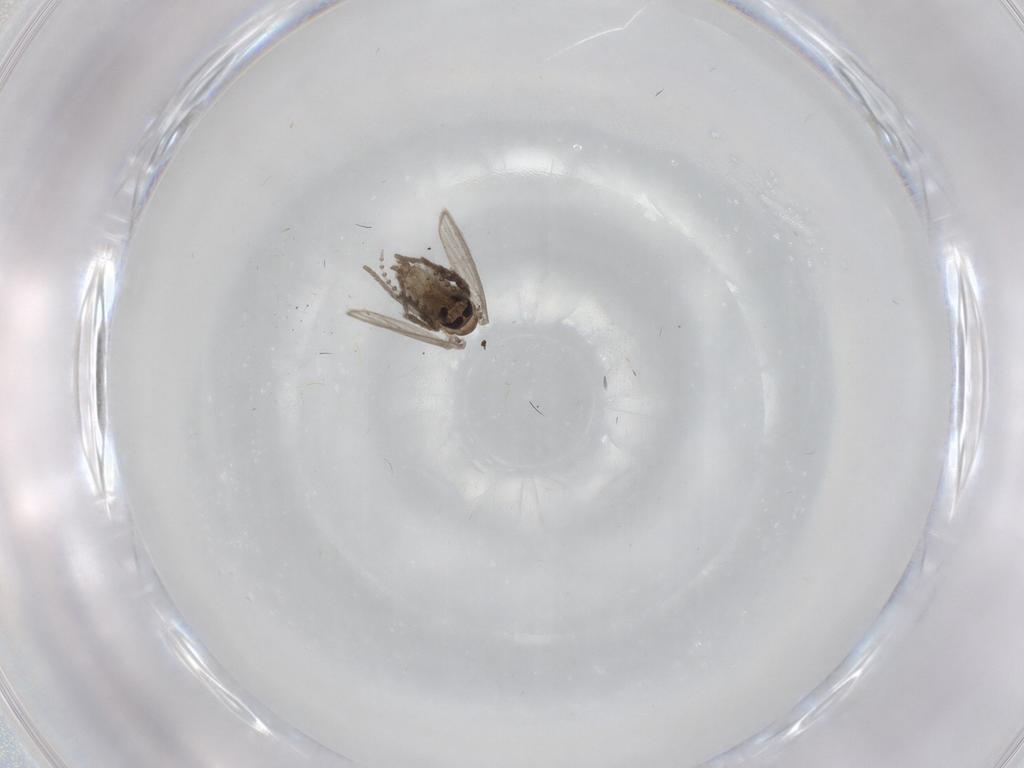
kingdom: Animalia
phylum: Arthropoda
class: Insecta
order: Diptera
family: Psychodidae
